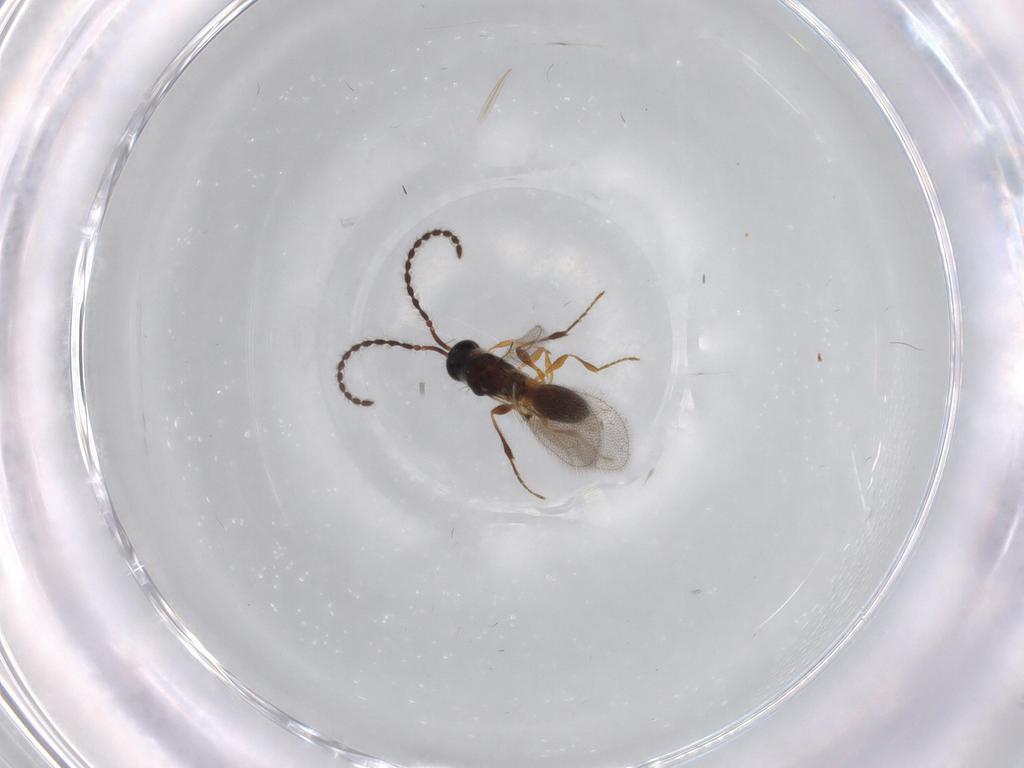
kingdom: Animalia
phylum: Arthropoda
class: Insecta
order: Hymenoptera
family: Diapriidae
